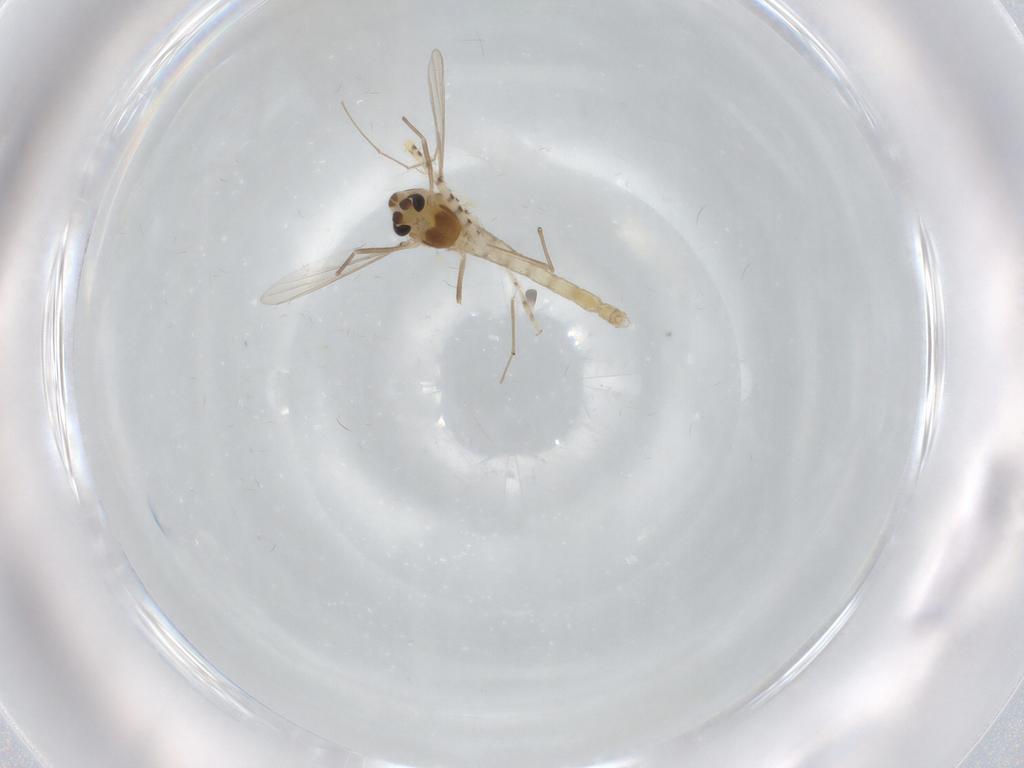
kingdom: Animalia
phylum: Arthropoda
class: Insecta
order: Diptera
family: Chaoboridae
